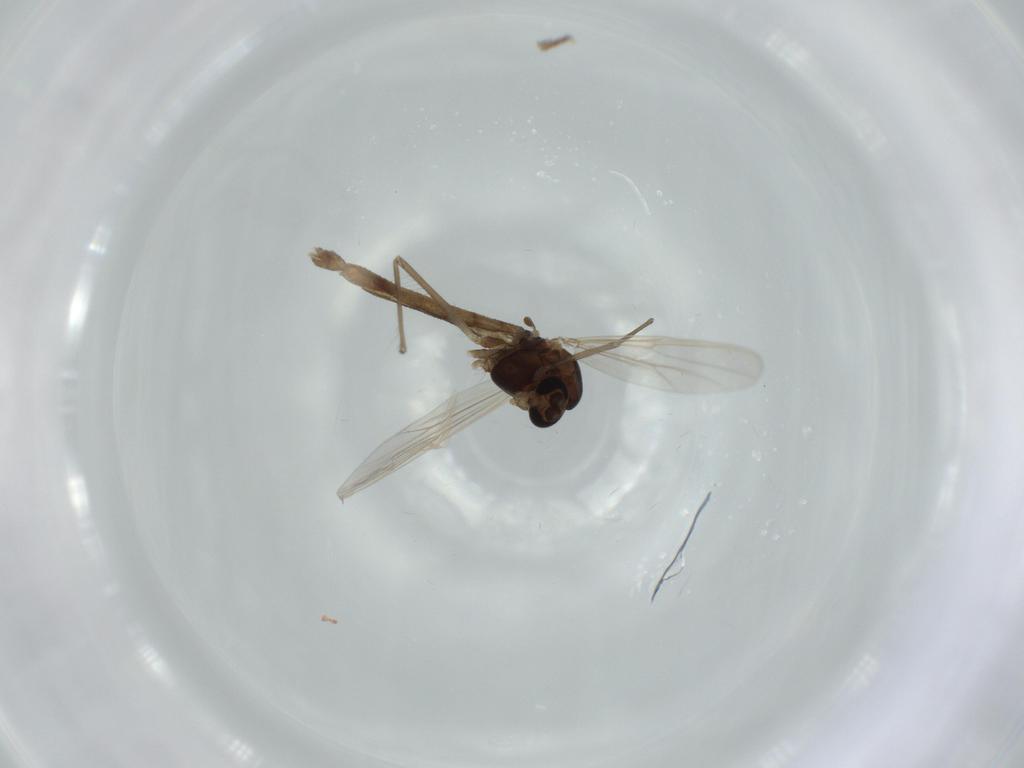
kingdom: Animalia
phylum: Arthropoda
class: Insecta
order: Diptera
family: Chironomidae
